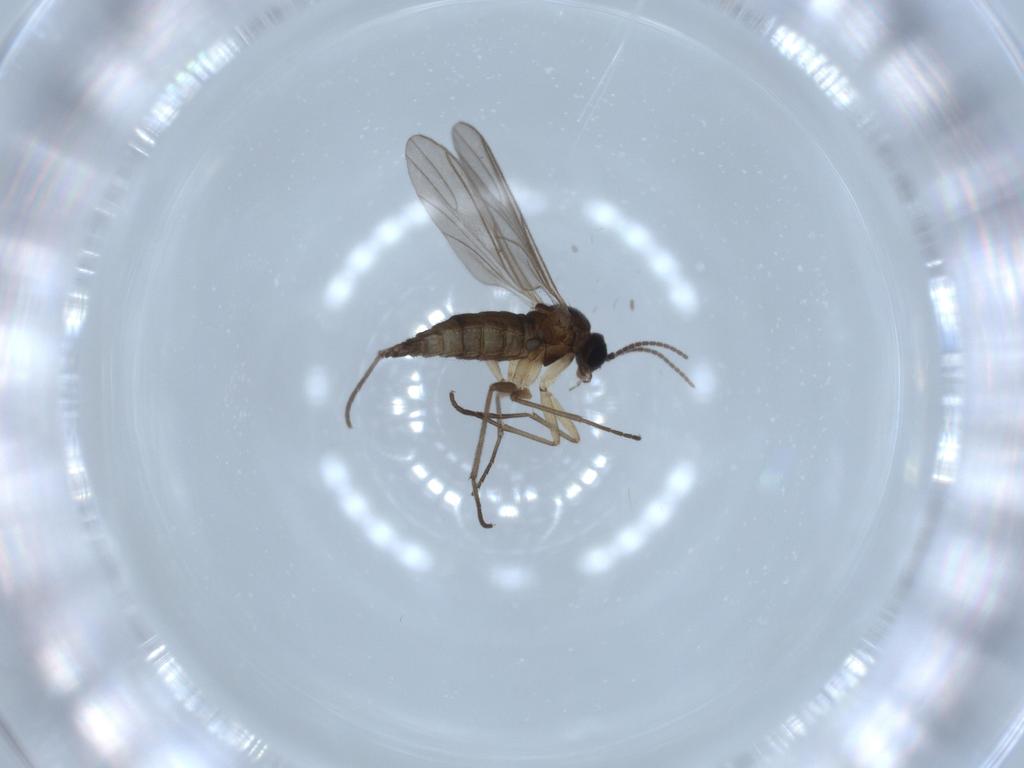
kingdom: Animalia
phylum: Arthropoda
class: Insecta
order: Diptera
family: Sciaridae
